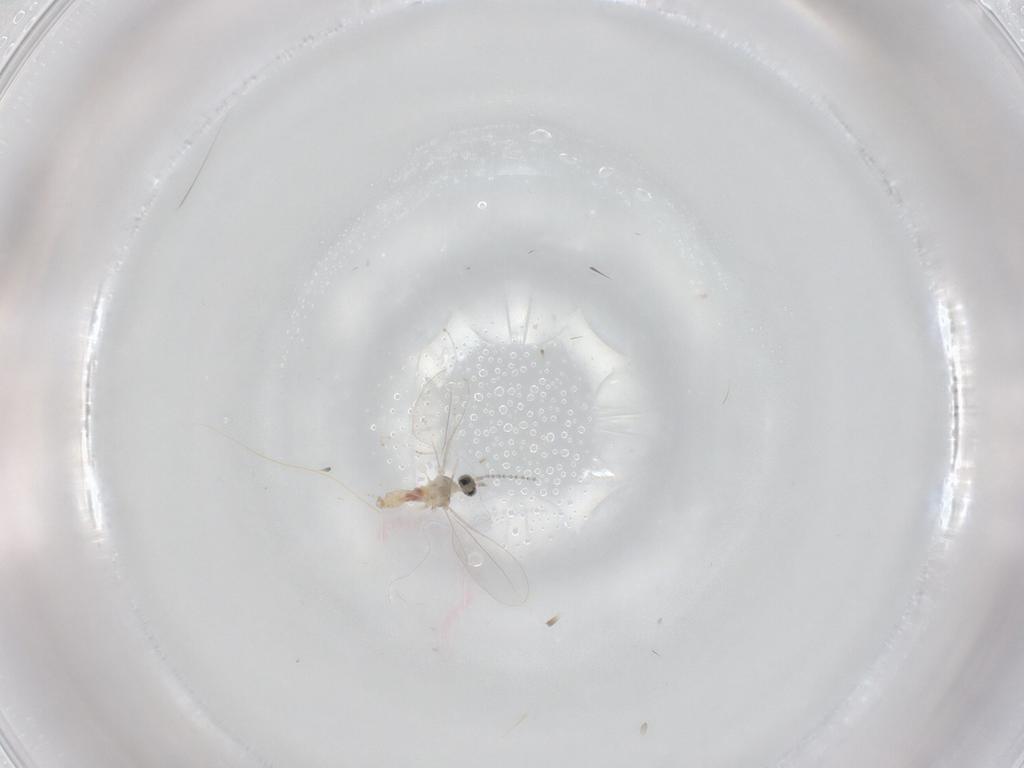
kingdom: Animalia
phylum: Arthropoda
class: Insecta
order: Diptera
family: Cecidomyiidae
